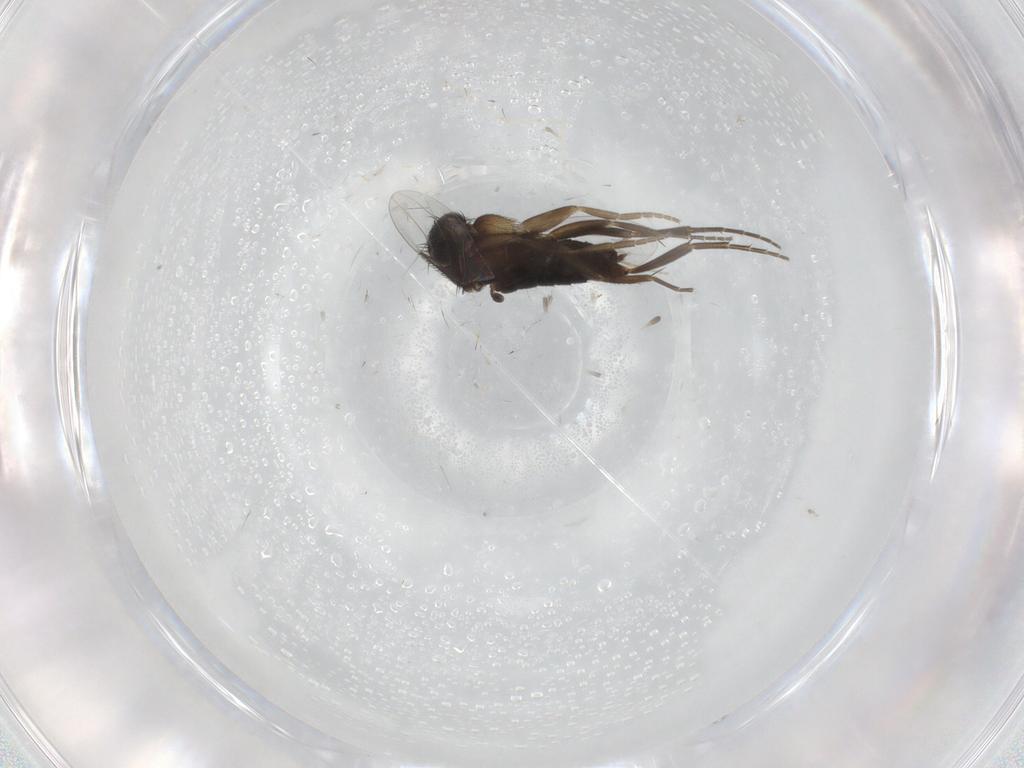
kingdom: Animalia
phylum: Arthropoda
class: Insecta
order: Diptera
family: Phoridae
